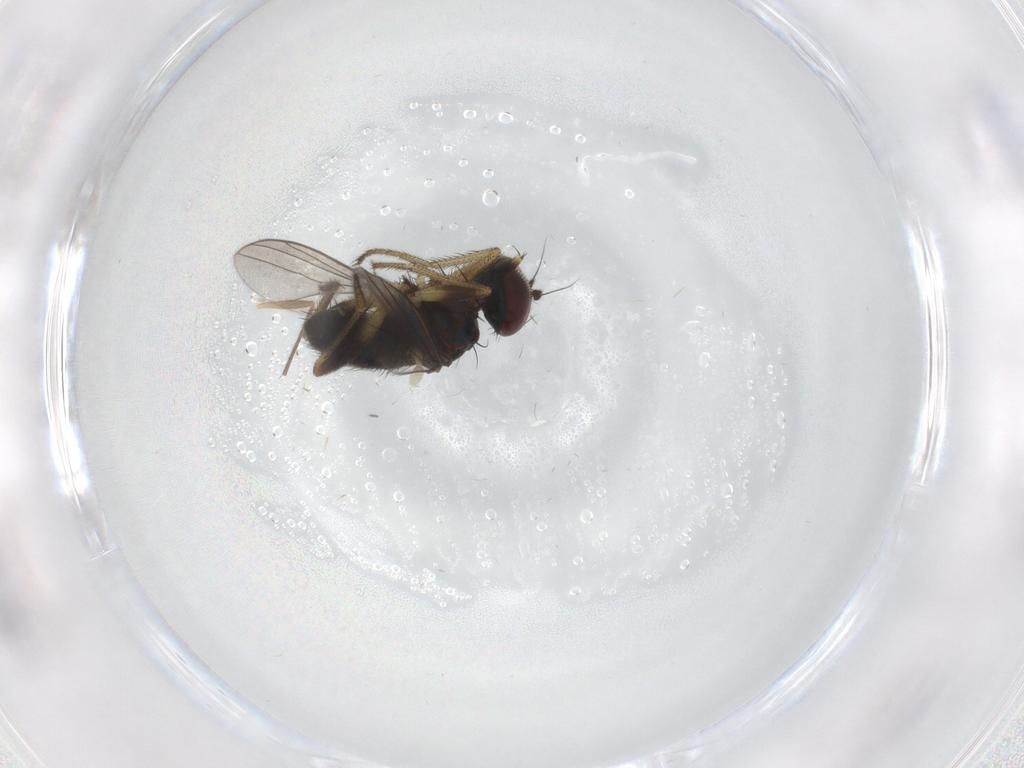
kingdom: Animalia
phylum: Arthropoda
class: Insecta
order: Diptera
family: Dolichopodidae
